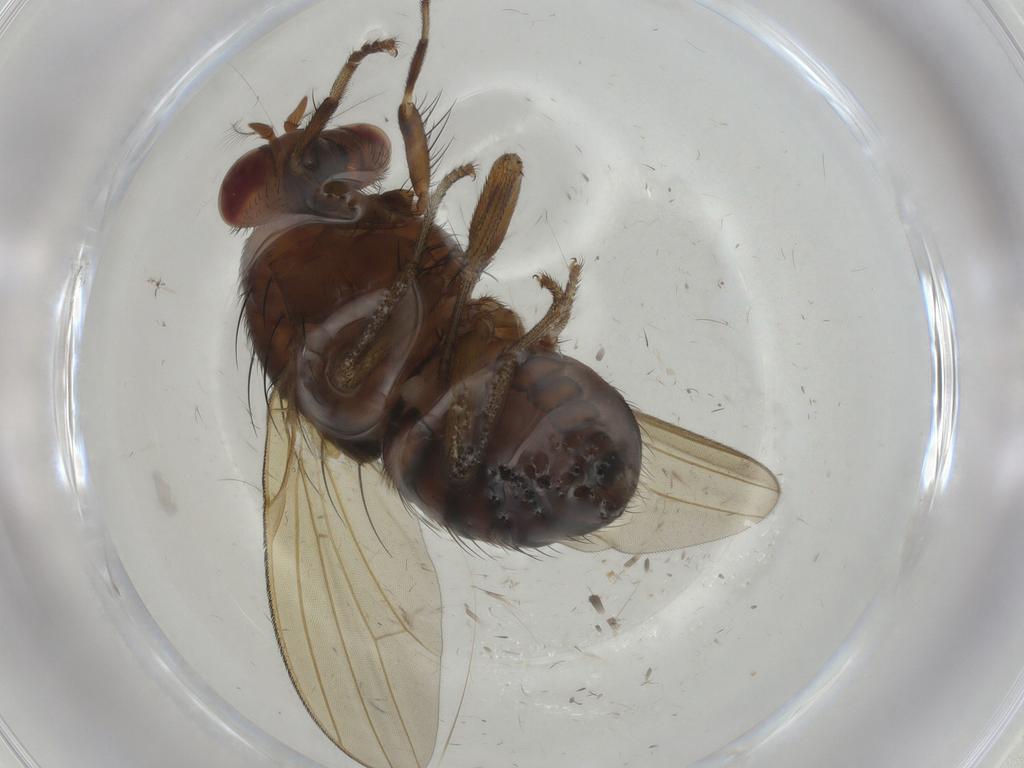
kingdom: Animalia
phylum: Arthropoda
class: Insecta
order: Diptera
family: Lauxaniidae
